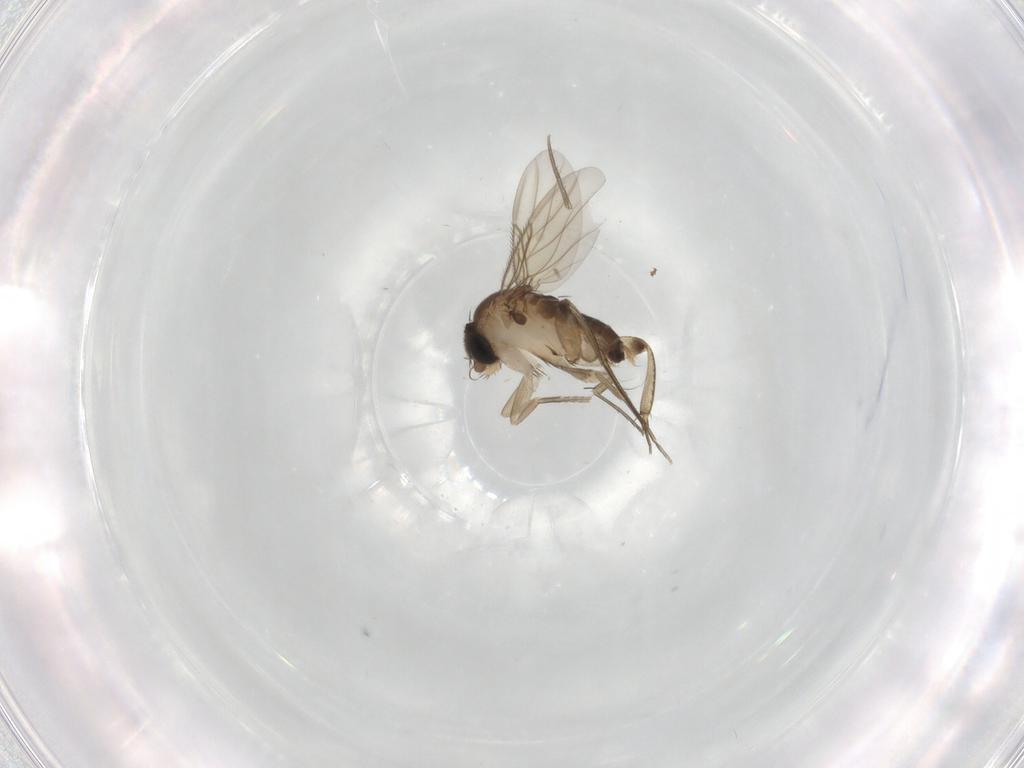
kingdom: Animalia
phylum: Arthropoda
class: Insecta
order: Diptera
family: Phoridae
